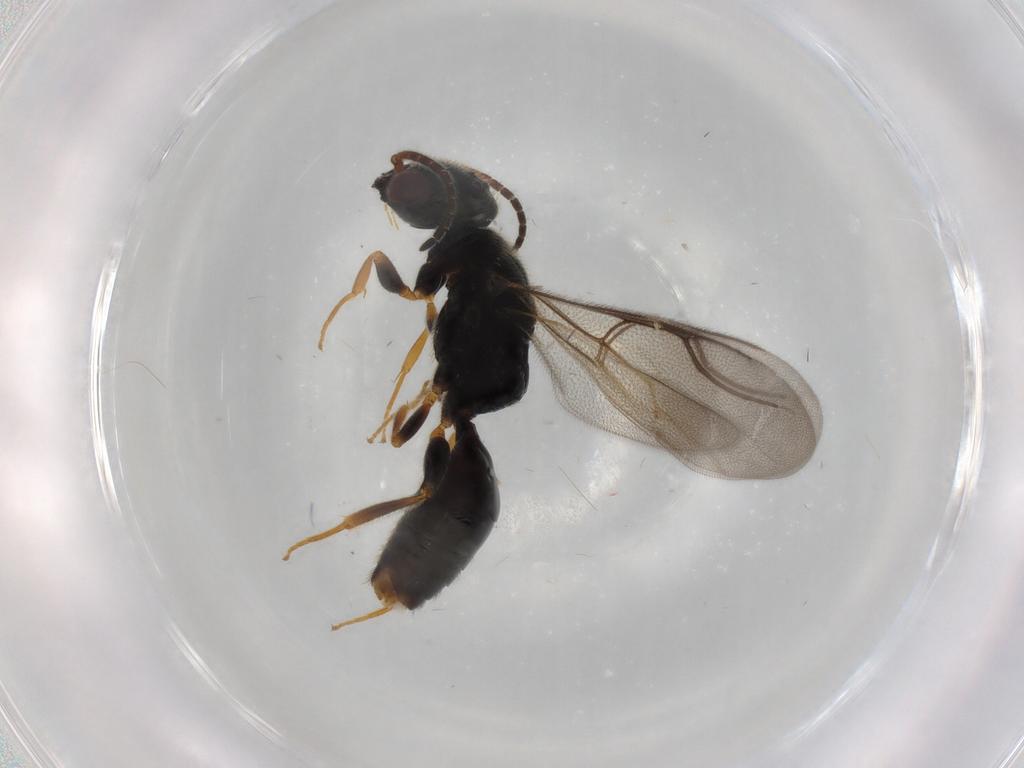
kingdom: Animalia
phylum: Arthropoda
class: Insecta
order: Hymenoptera
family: Bethylidae
